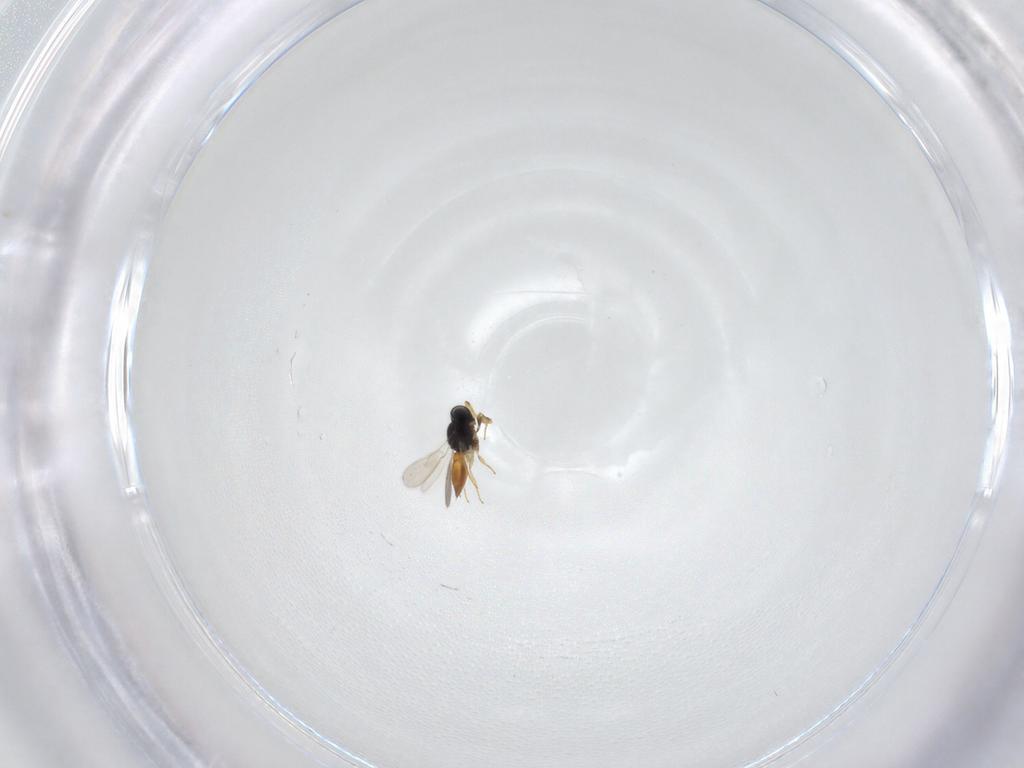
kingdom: Animalia
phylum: Arthropoda
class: Insecta
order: Hymenoptera
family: Scelionidae
